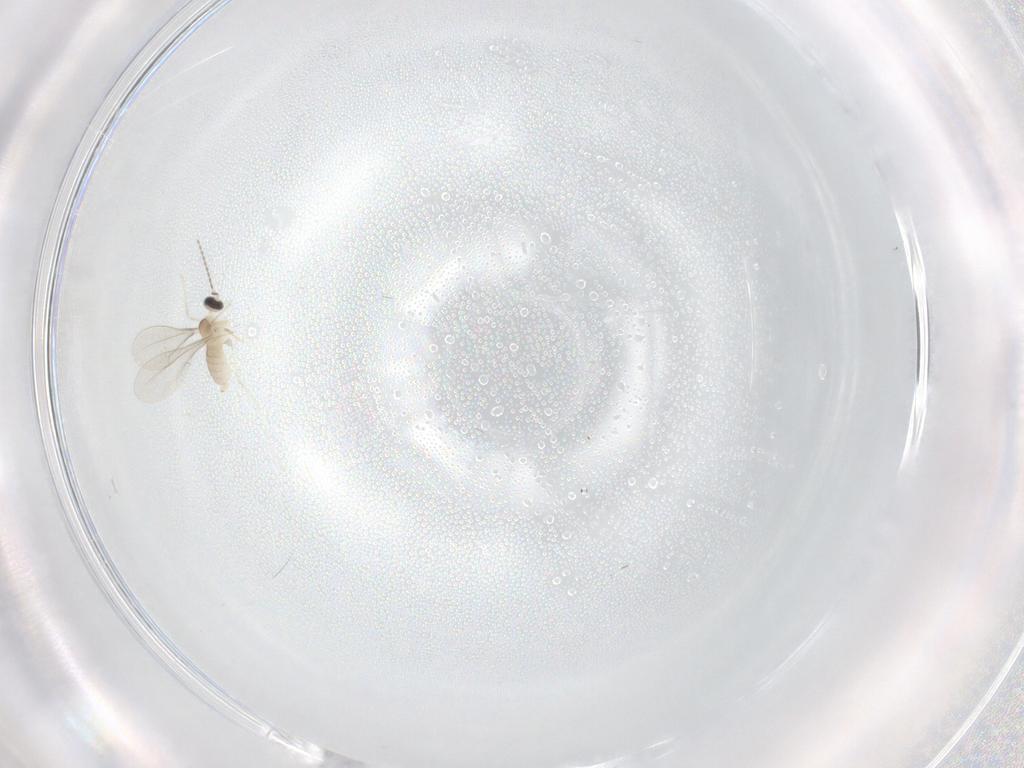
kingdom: Animalia
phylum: Arthropoda
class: Insecta
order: Diptera
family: Cecidomyiidae
